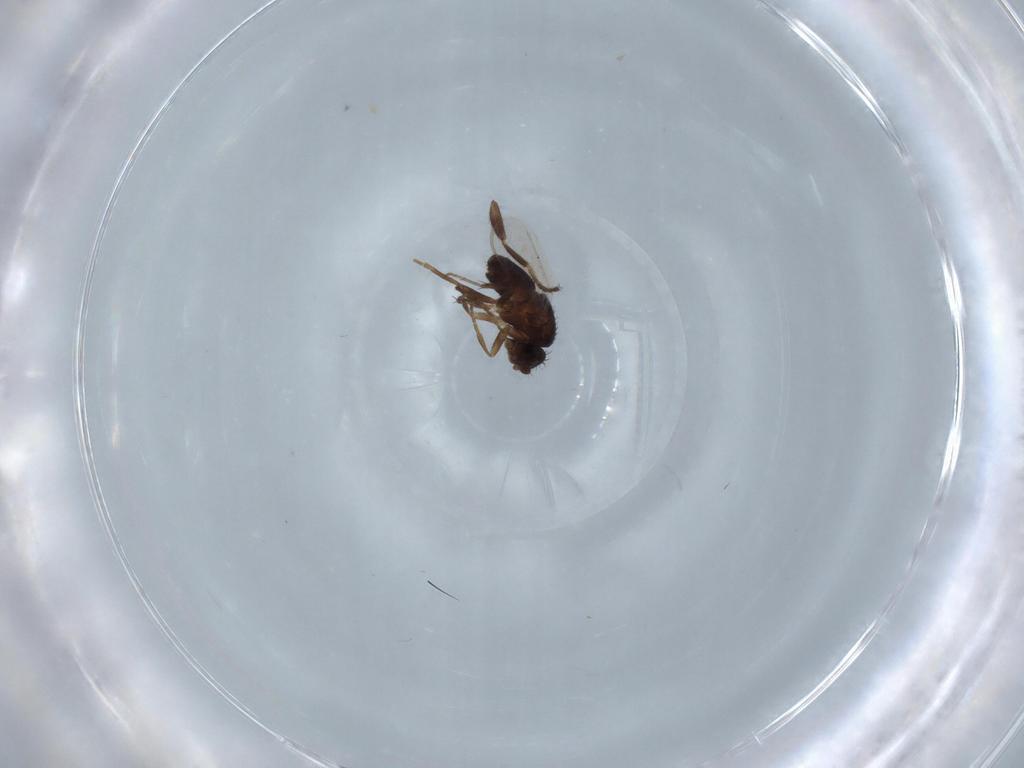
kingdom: Animalia
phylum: Arthropoda
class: Insecta
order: Diptera
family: Sphaeroceridae
